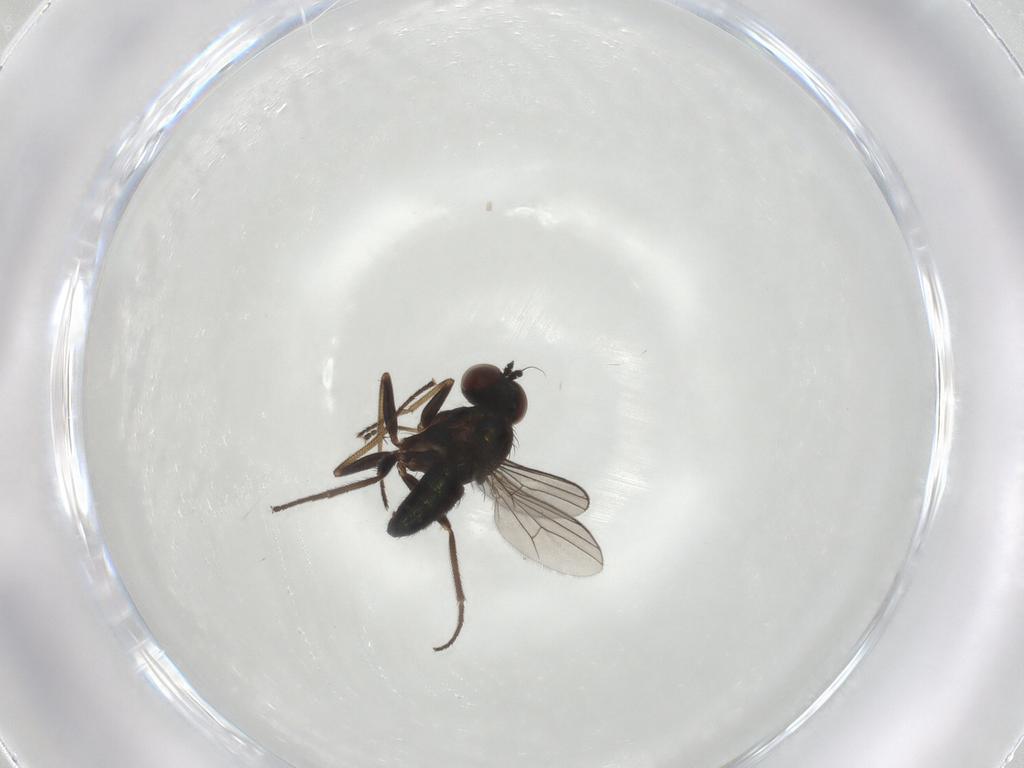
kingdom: Animalia
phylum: Arthropoda
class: Insecta
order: Diptera
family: Dolichopodidae
